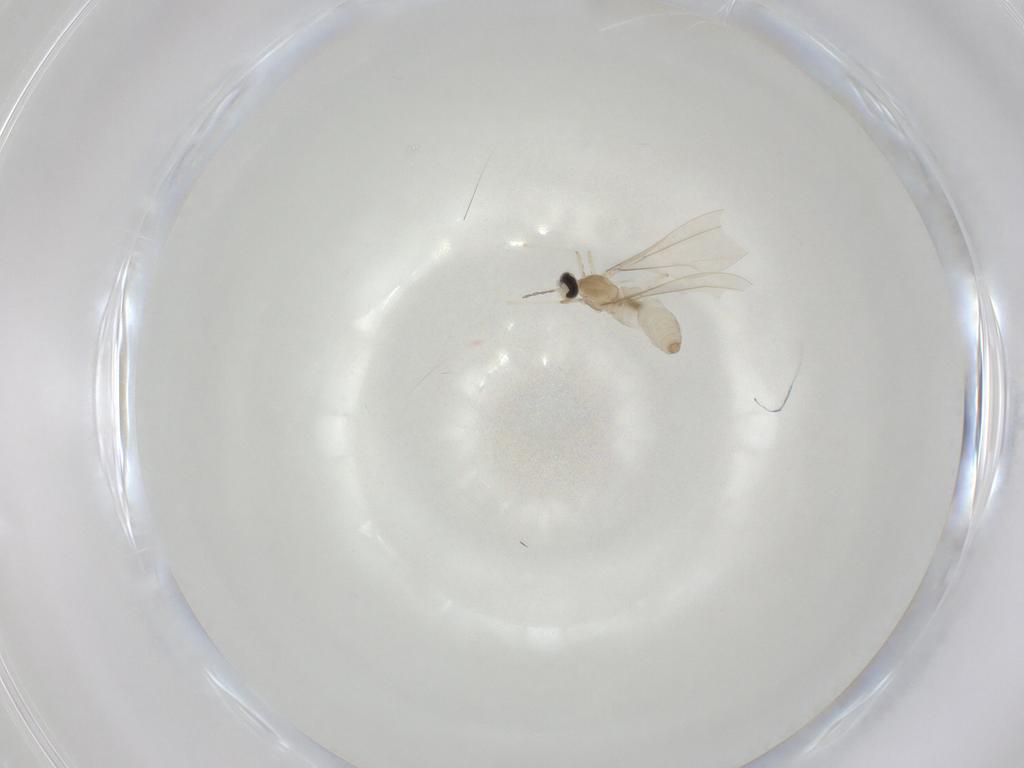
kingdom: Animalia
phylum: Arthropoda
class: Insecta
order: Diptera
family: Cecidomyiidae
